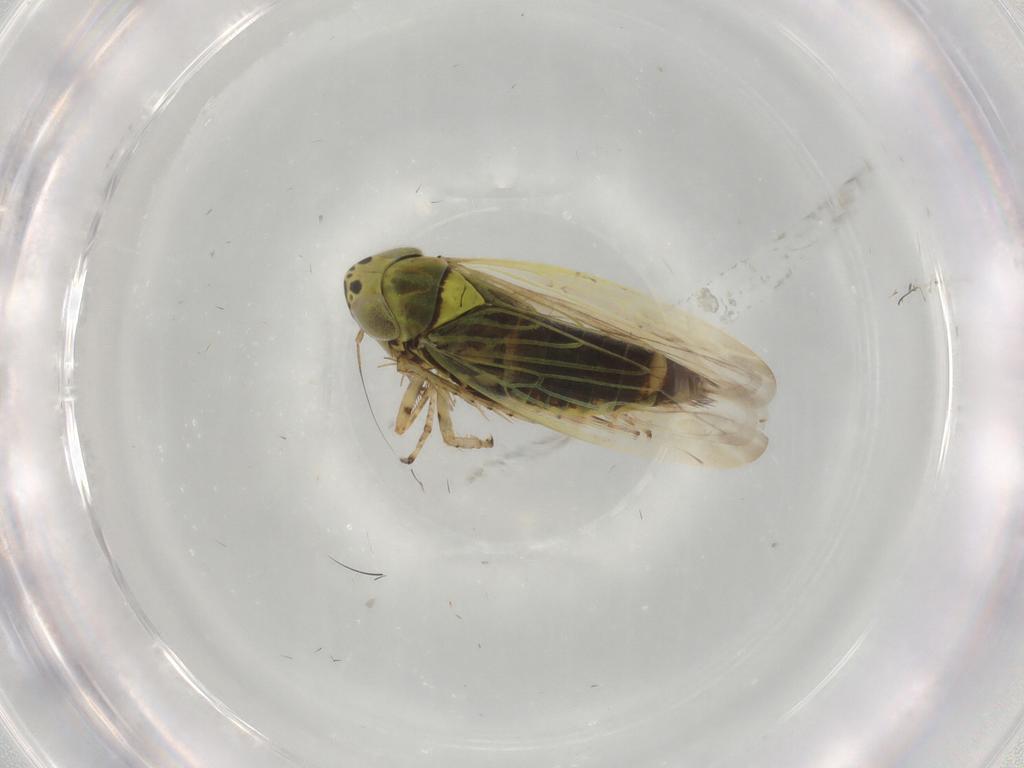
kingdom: Animalia
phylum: Arthropoda
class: Insecta
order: Hemiptera
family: Cicadellidae
